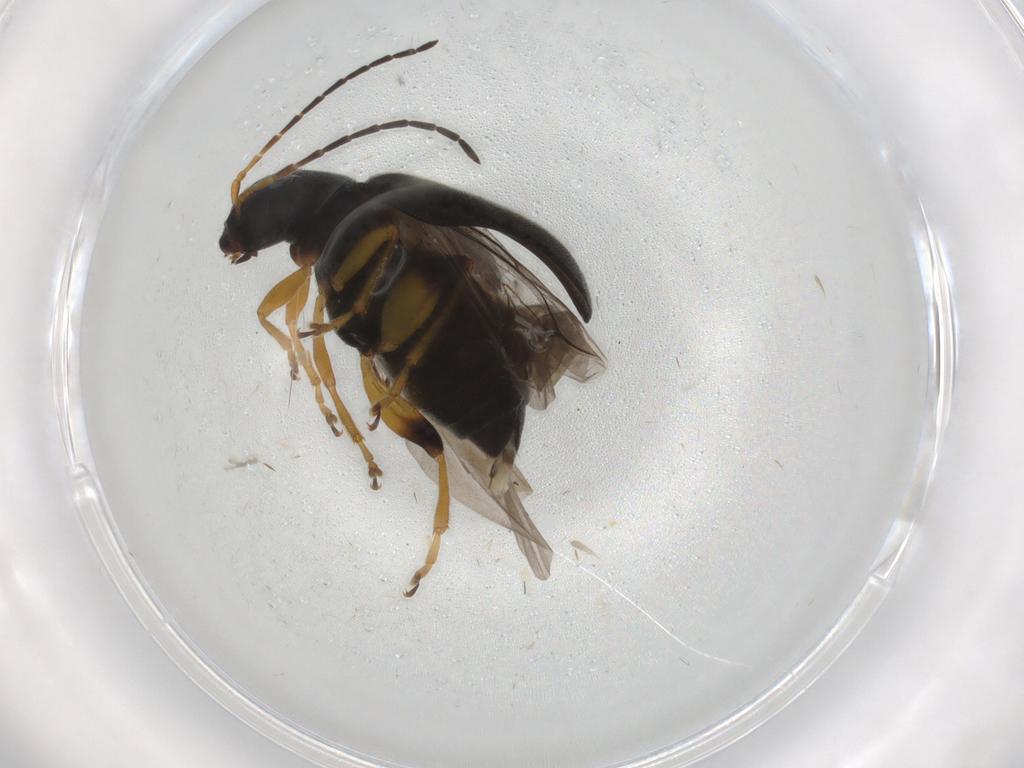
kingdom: Animalia
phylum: Arthropoda
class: Insecta
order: Coleoptera
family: Chrysomelidae
